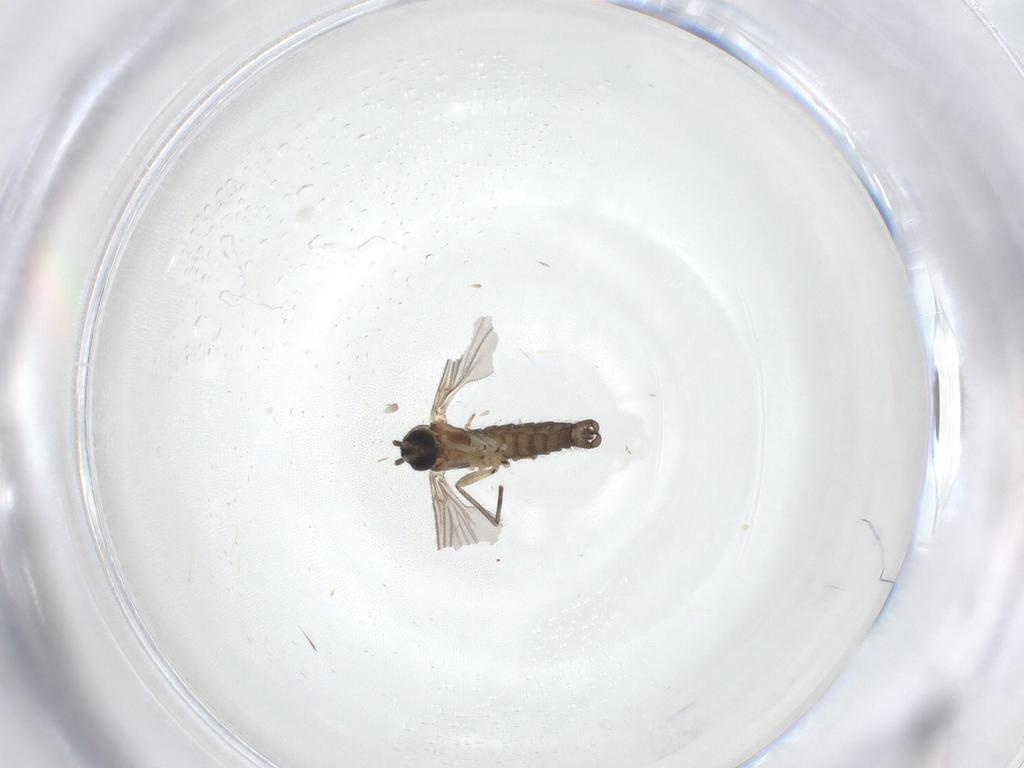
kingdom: Animalia
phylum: Arthropoda
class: Insecta
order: Diptera
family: Sciaridae
